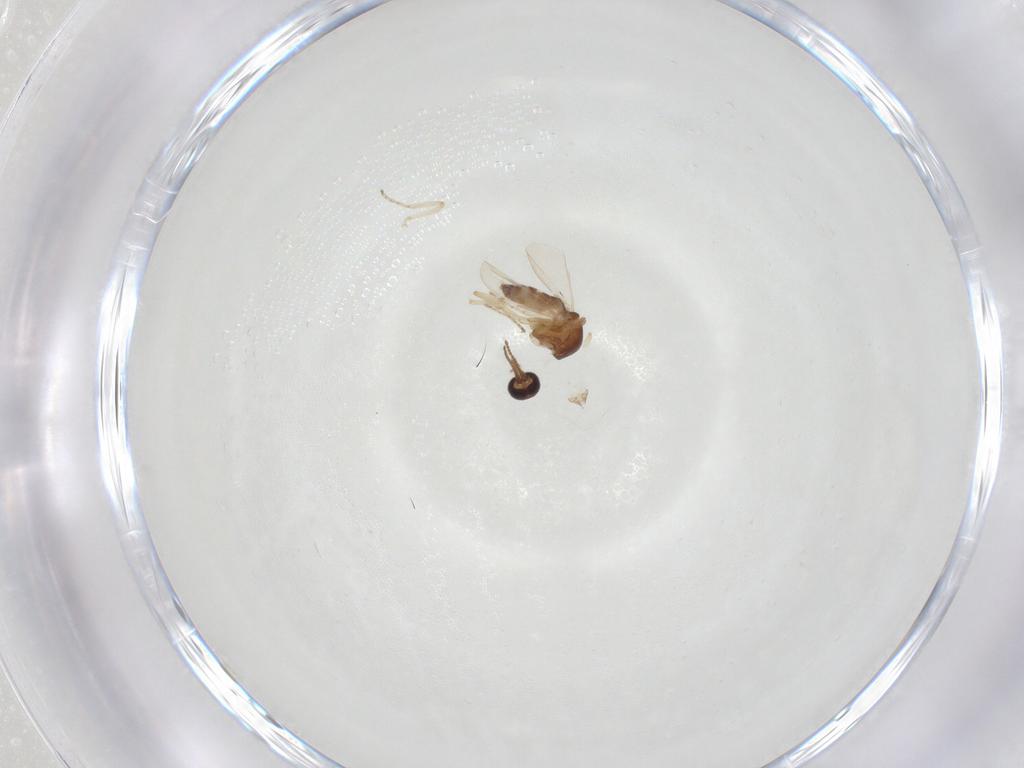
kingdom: Animalia
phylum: Arthropoda
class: Insecta
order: Diptera
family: Ceratopogonidae
